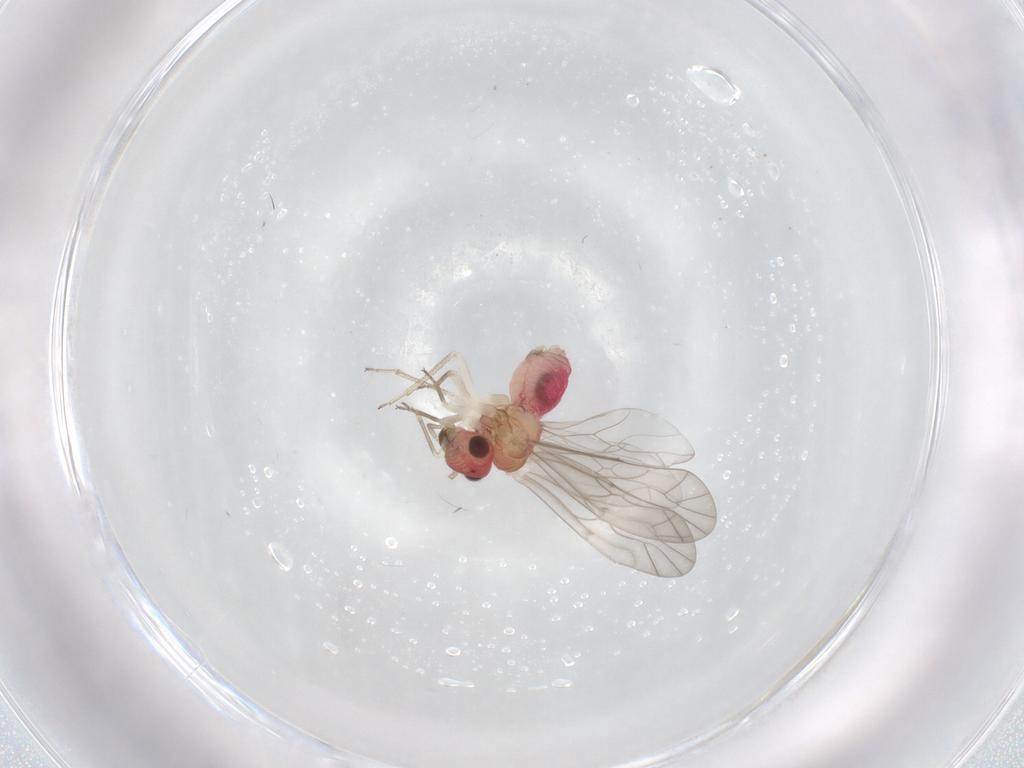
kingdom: Animalia
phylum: Arthropoda
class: Insecta
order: Psocodea
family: Lachesillidae
